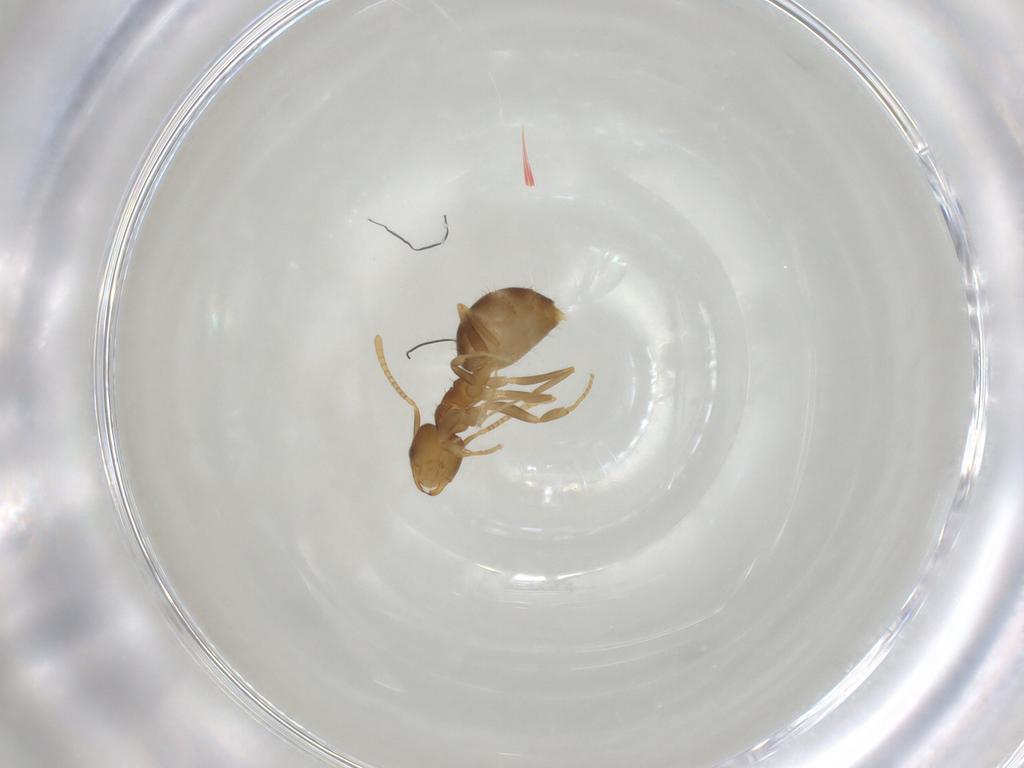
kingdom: Animalia
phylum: Arthropoda
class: Insecta
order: Hymenoptera
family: Formicidae
